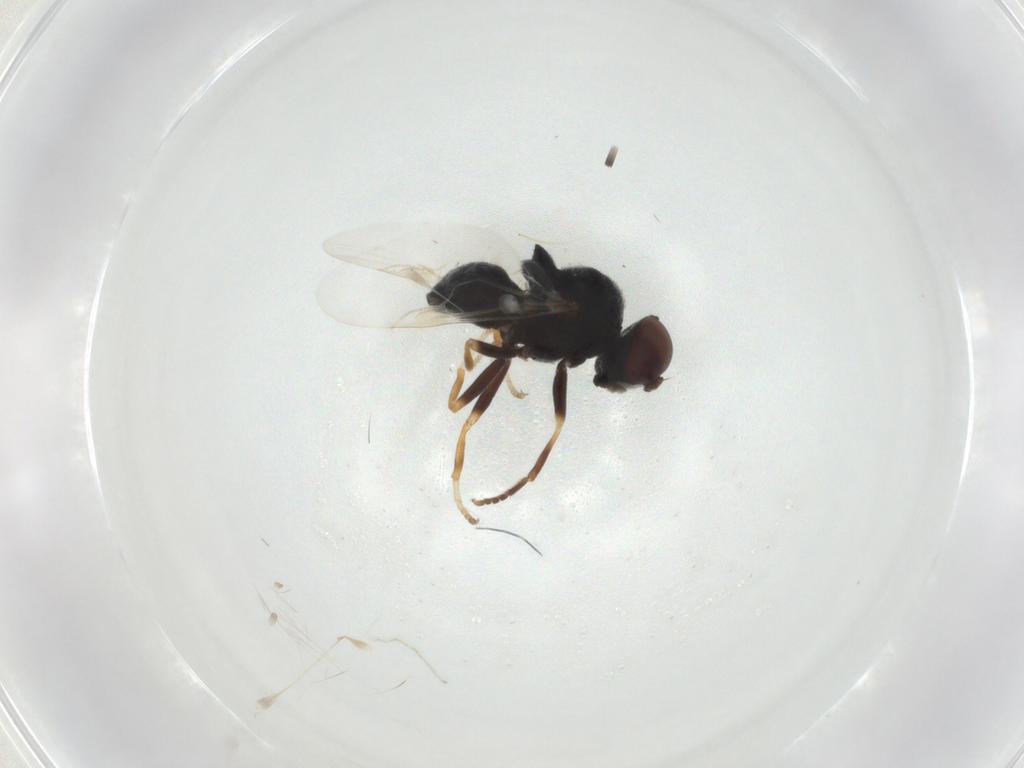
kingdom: Animalia
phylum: Arthropoda
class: Insecta
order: Diptera
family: Stratiomyidae
